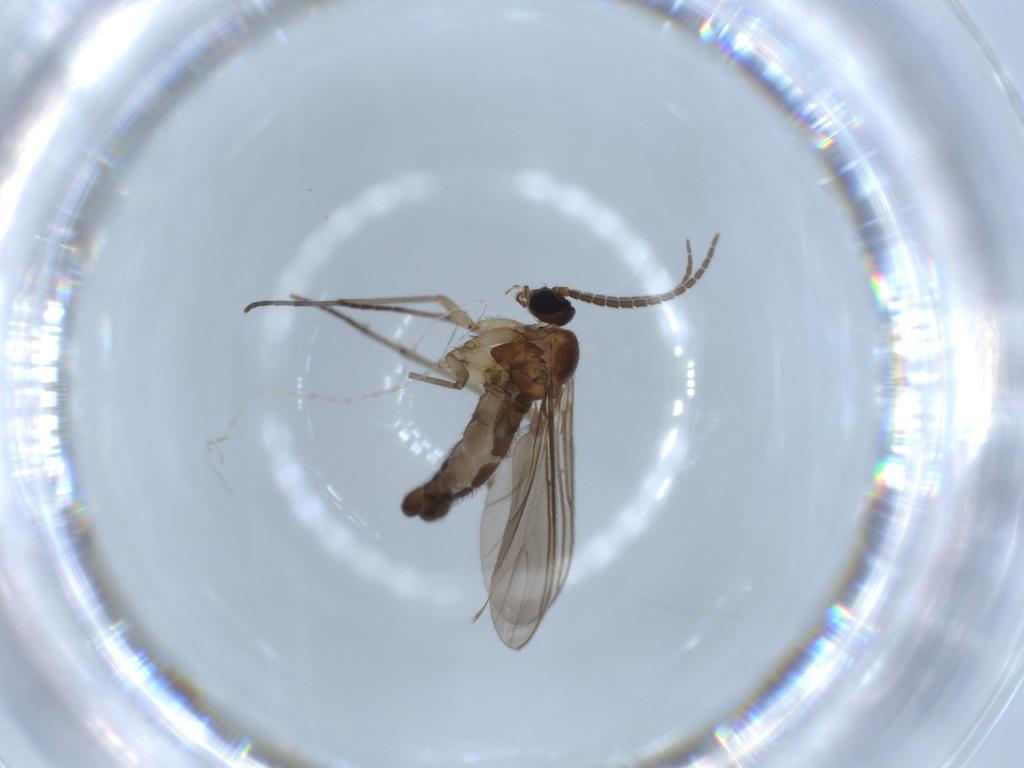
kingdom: Animalia
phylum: Arthropoda
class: Insecta
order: Diptera
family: Sciaridae
